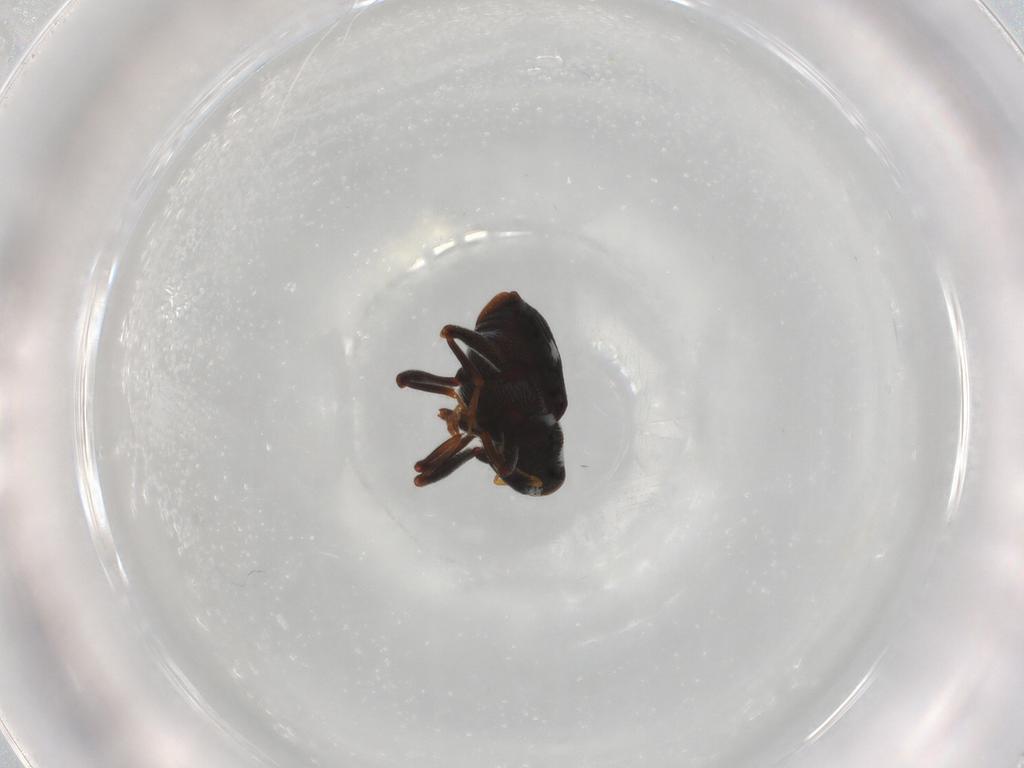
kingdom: Animalia
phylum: Arthropoda
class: Insecta
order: Coleoptera
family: Curculionidae
